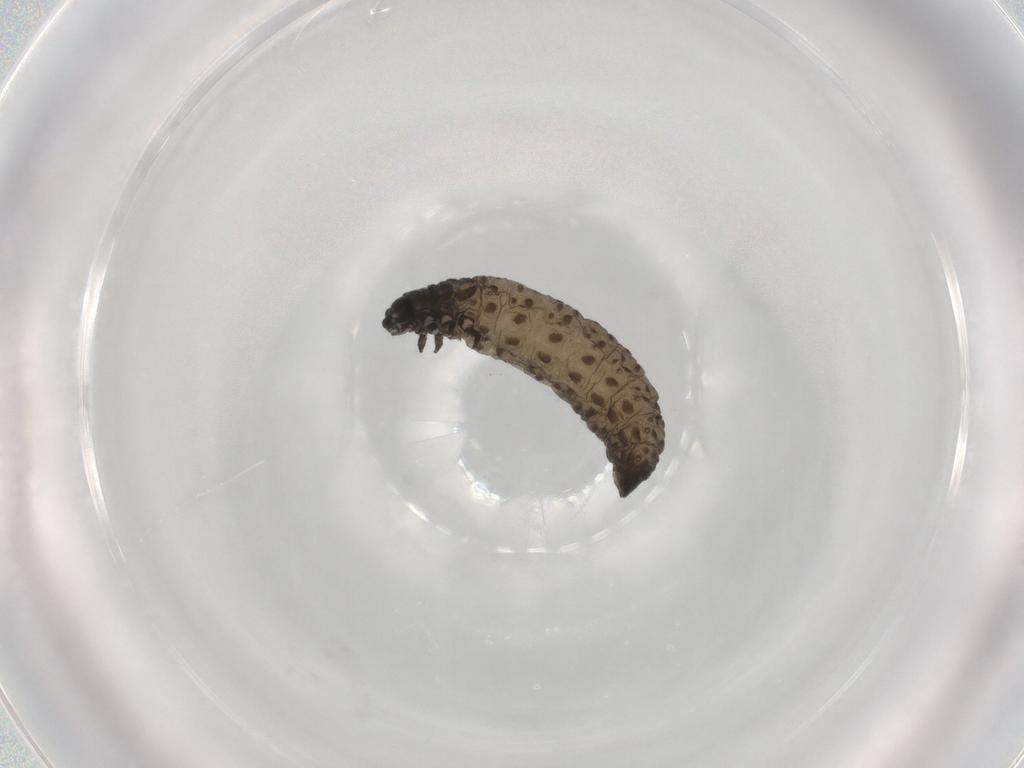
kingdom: Animalia
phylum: Arthropoda
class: Insecta
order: Coleoptera
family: Chrysomelidae
